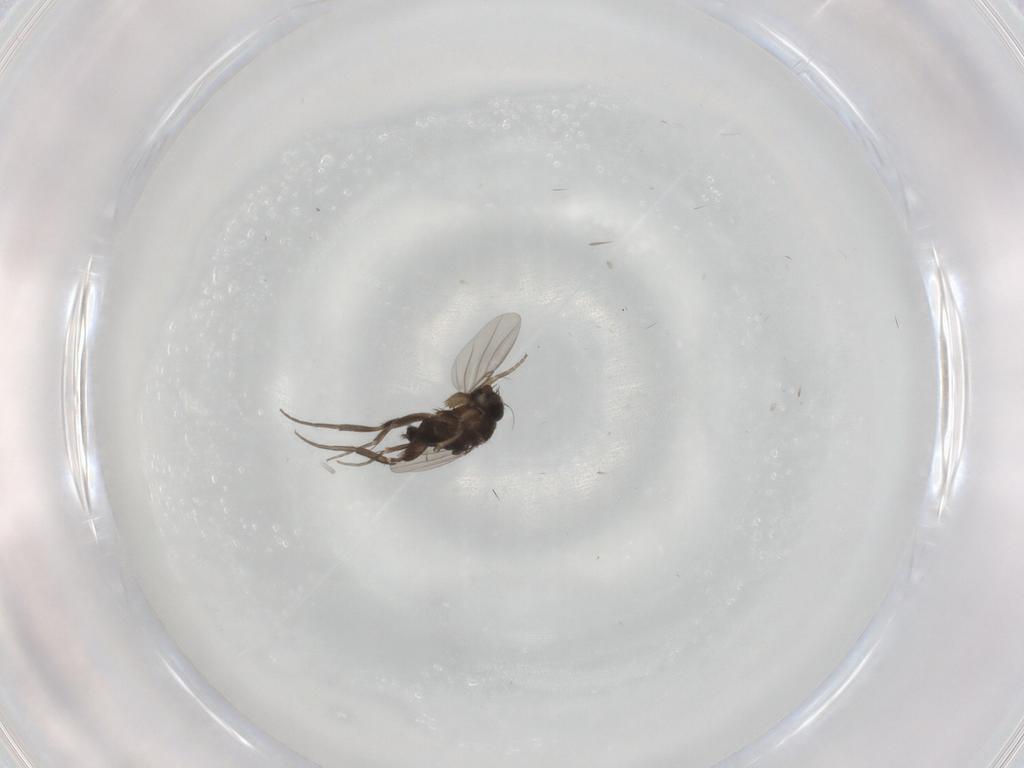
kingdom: Animalia
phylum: Arthropoda
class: Insecta
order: Diptera
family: Phoridae
